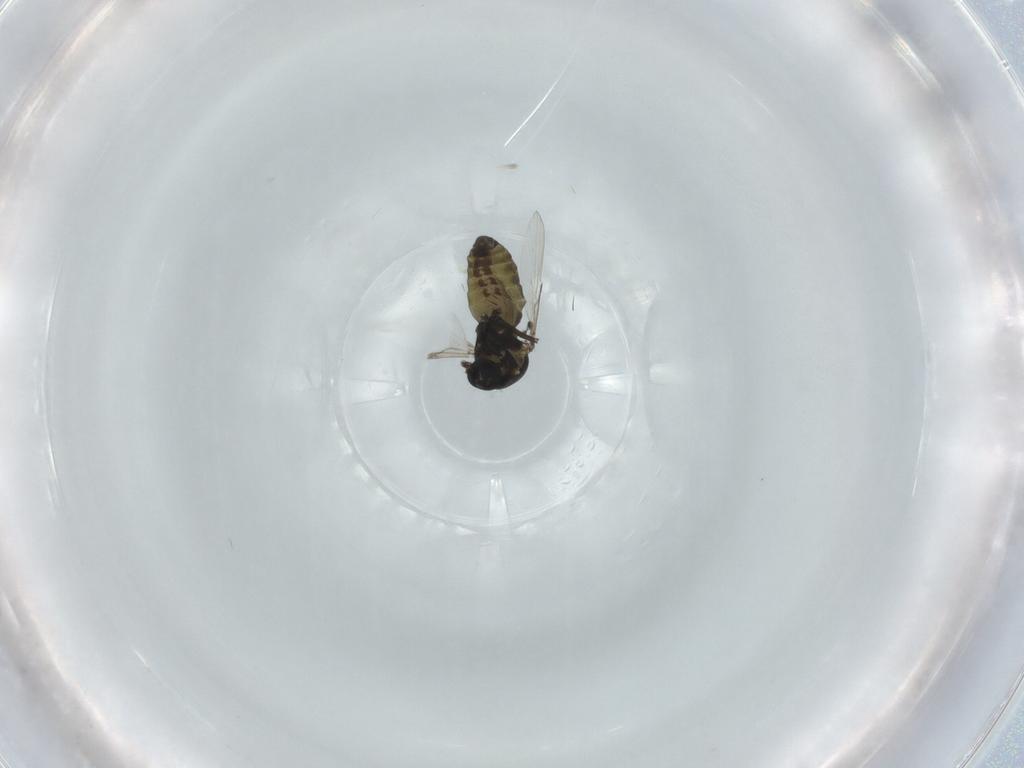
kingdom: Animalia
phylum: Arthropoda
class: Insecta
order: Diptera
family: Ceratopogonidae
